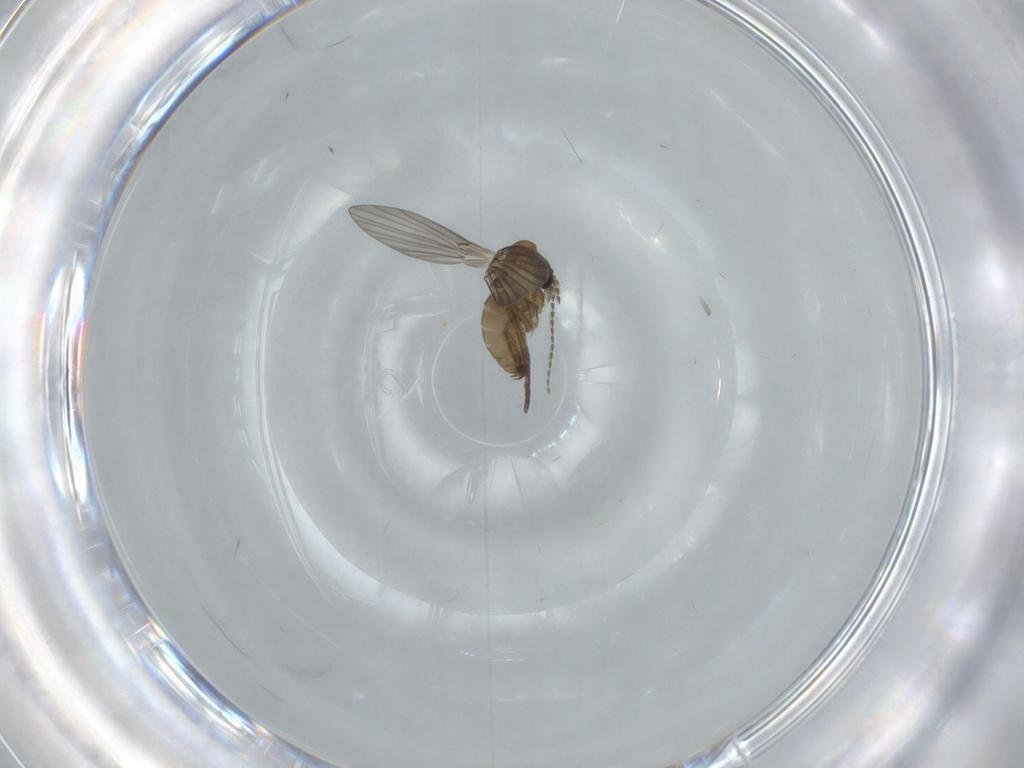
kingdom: Animalia
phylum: Arthropoda
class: Insecta
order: Diptera
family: Psychodidae
